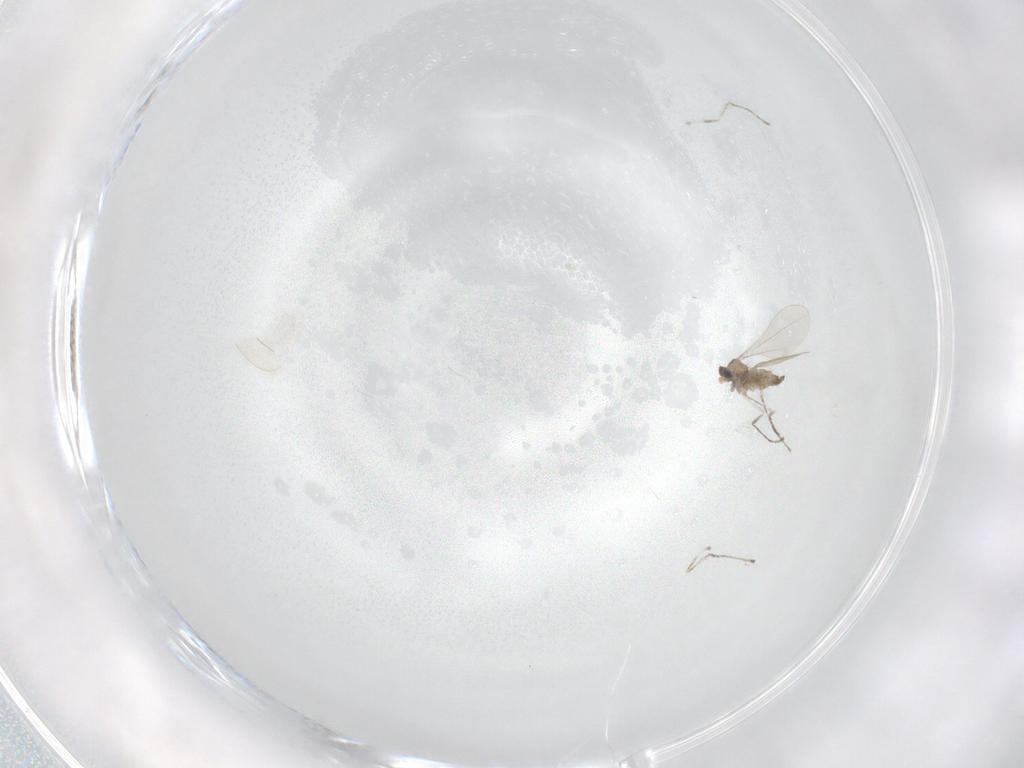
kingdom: Animalia
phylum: Arthropoda
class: Insecta
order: Diptera
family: Cecidomyiidae
